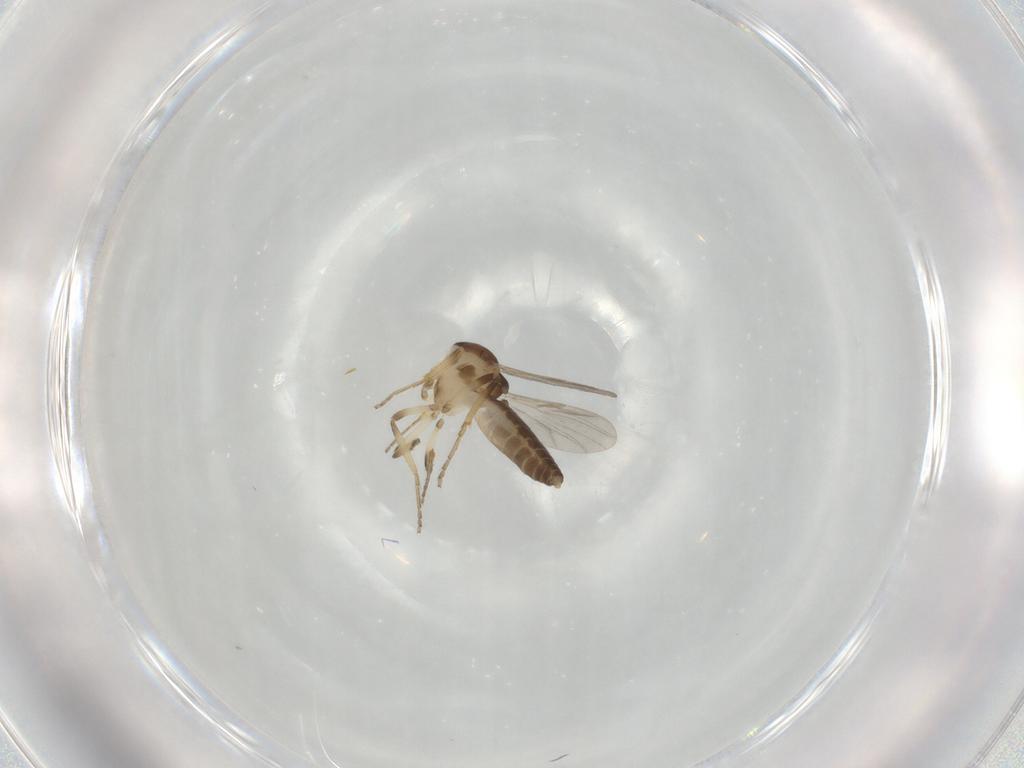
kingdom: Animalia
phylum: Arthropoda
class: Insecta
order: Diptera
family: Ceratopogonidae
